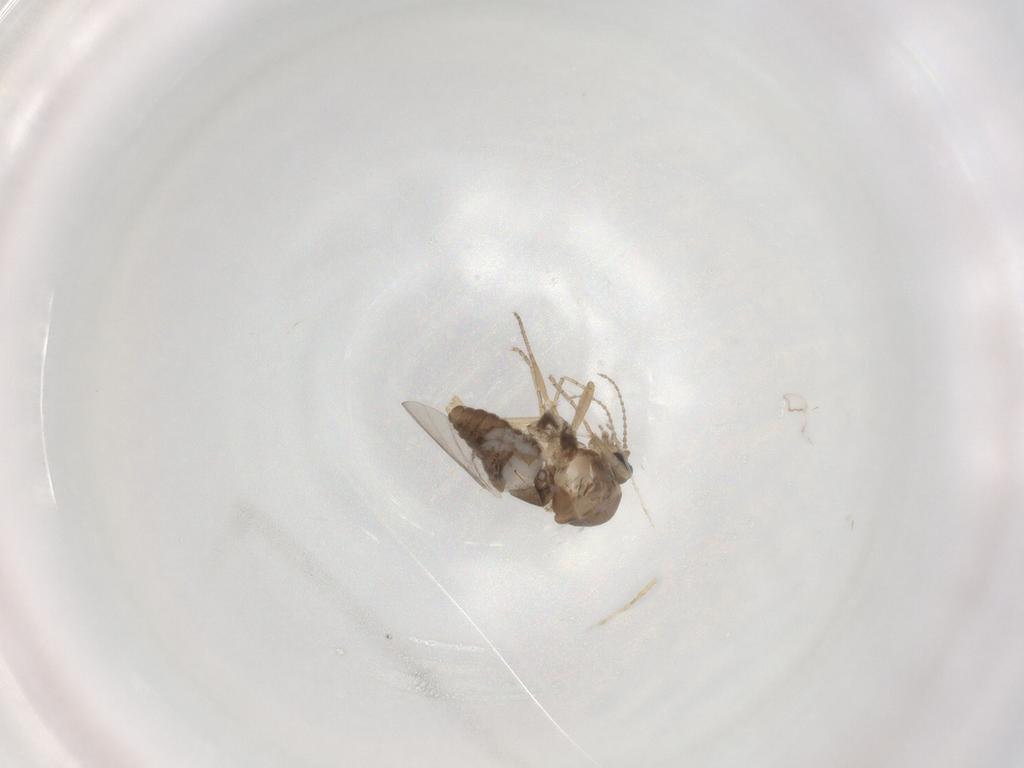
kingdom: Animalia
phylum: Arthropoda
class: Insecta
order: Diptera
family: Ceratopogonidae
